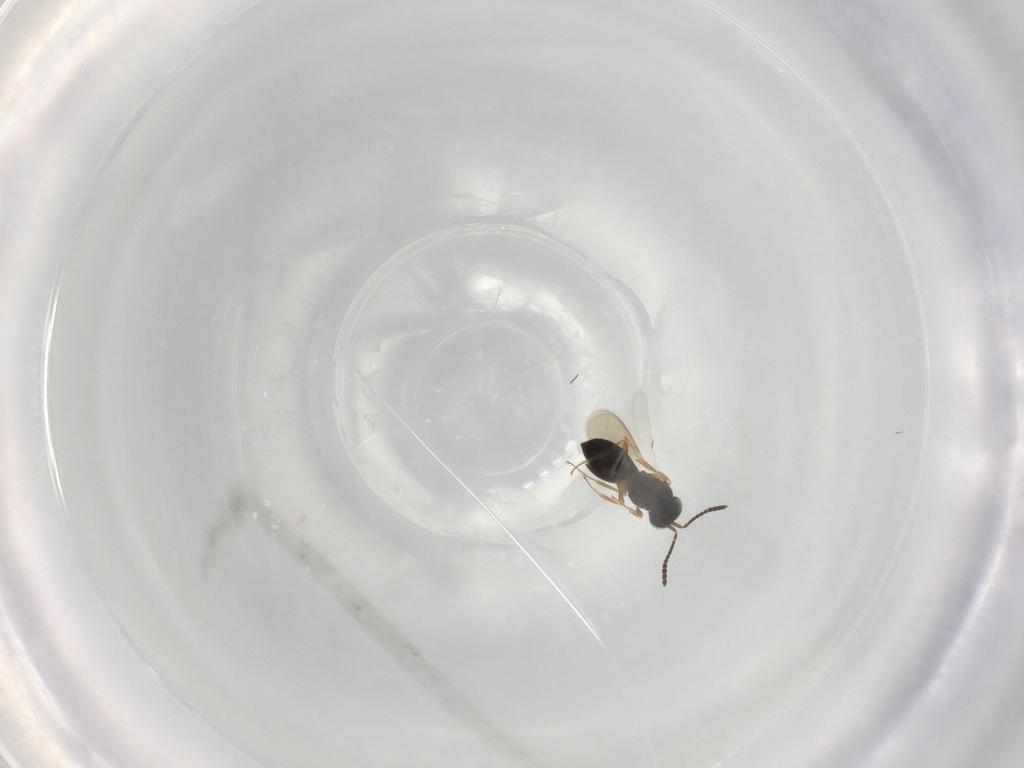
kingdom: Animalia
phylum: Arthropoda
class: Insecta
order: Hymenoptera
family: Scelionidae
